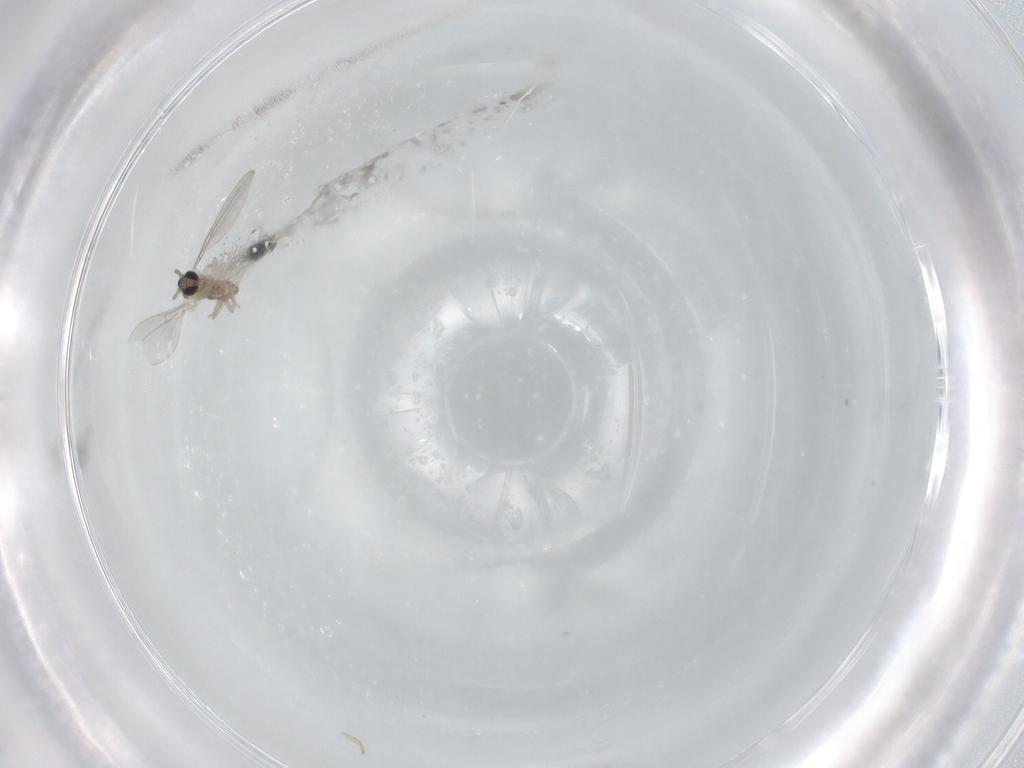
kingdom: Animalia
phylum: Arthropoda
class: Insecta
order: Diptera
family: Cecidomyiidae
